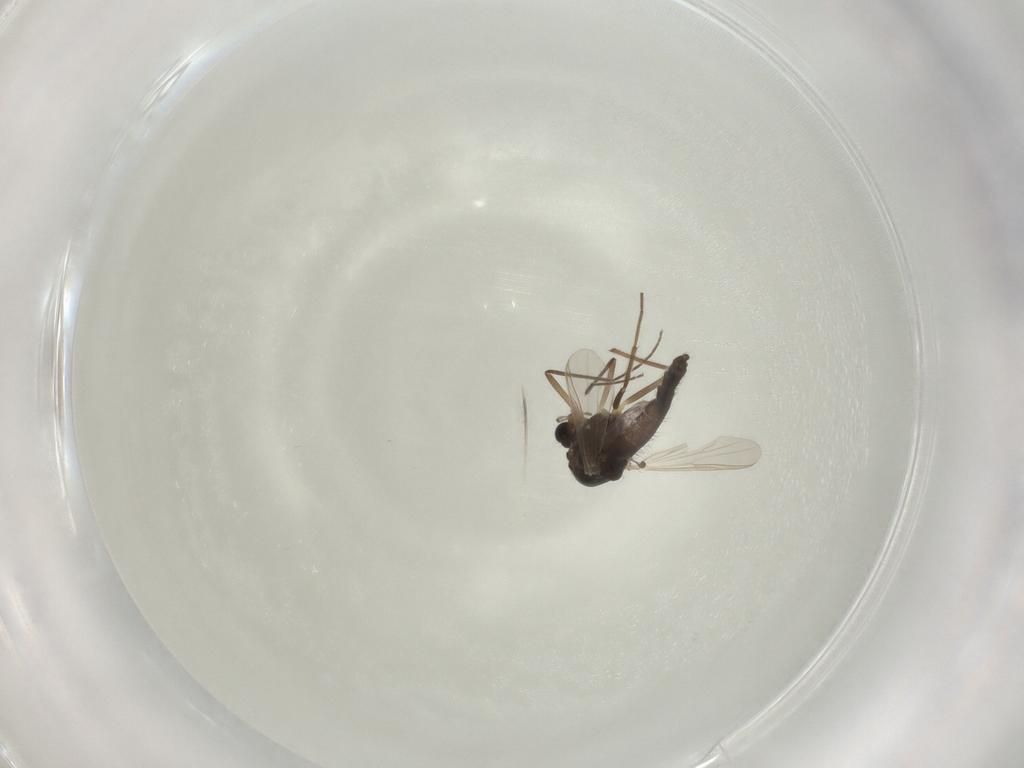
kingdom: Animalia
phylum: Arthropoda
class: Insecta
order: Diptera
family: Chironomidae
